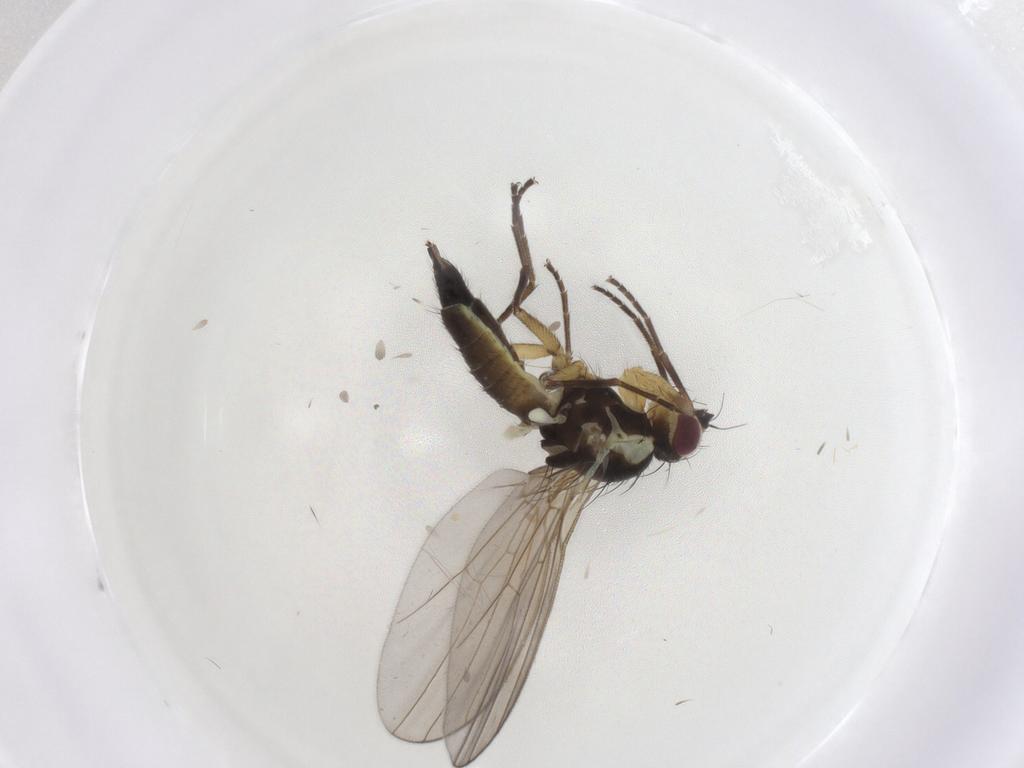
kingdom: Animalia
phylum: Arthropoda
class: Insecta
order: Diptera
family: Agromyzidae
